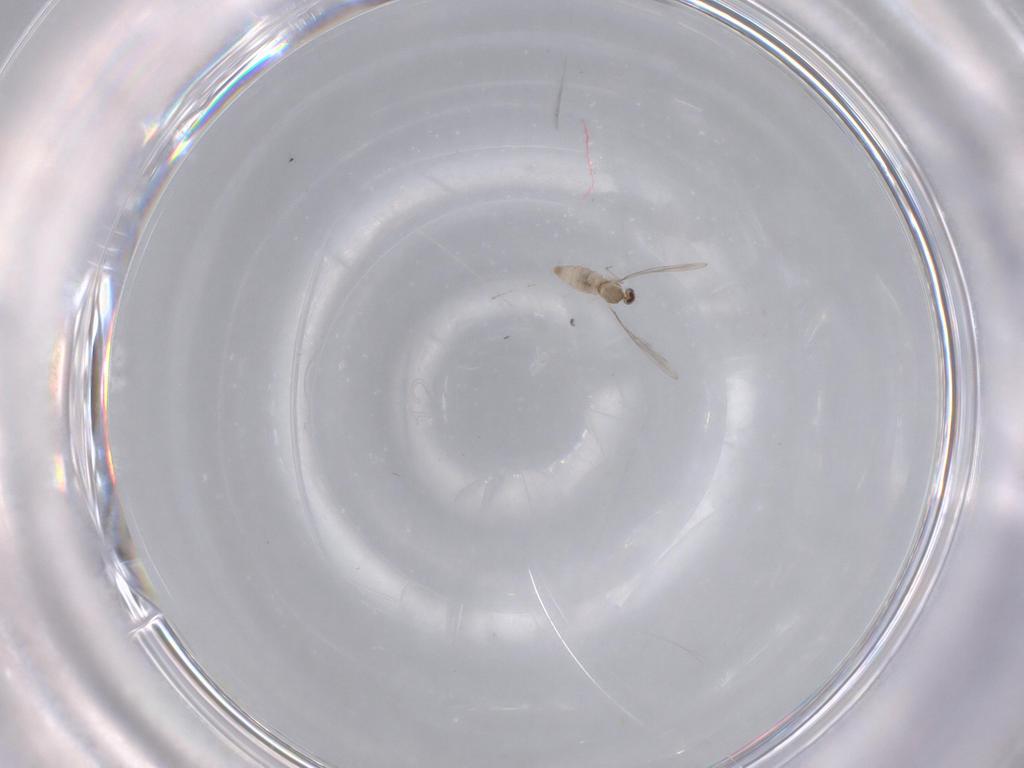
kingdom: Animalia
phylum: Arthropoda
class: Insecta
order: Diptera
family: Cecidomyiidae
